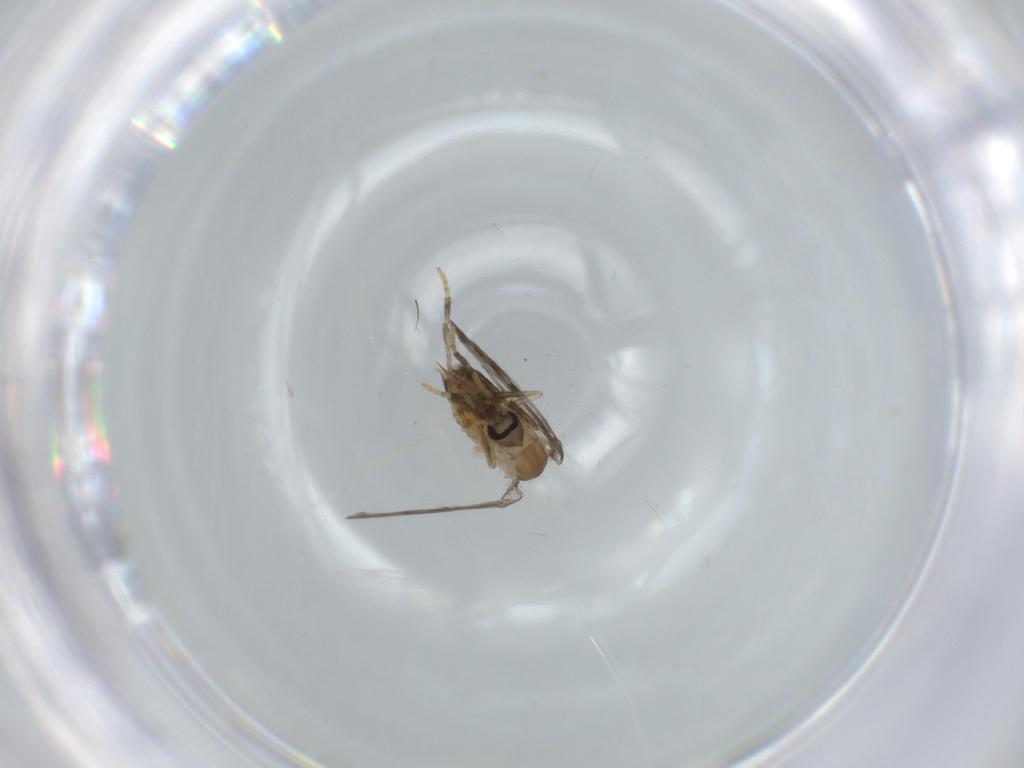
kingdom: Animalia
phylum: Arthropoda
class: Insecta
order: Diptera
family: Psychodidae
